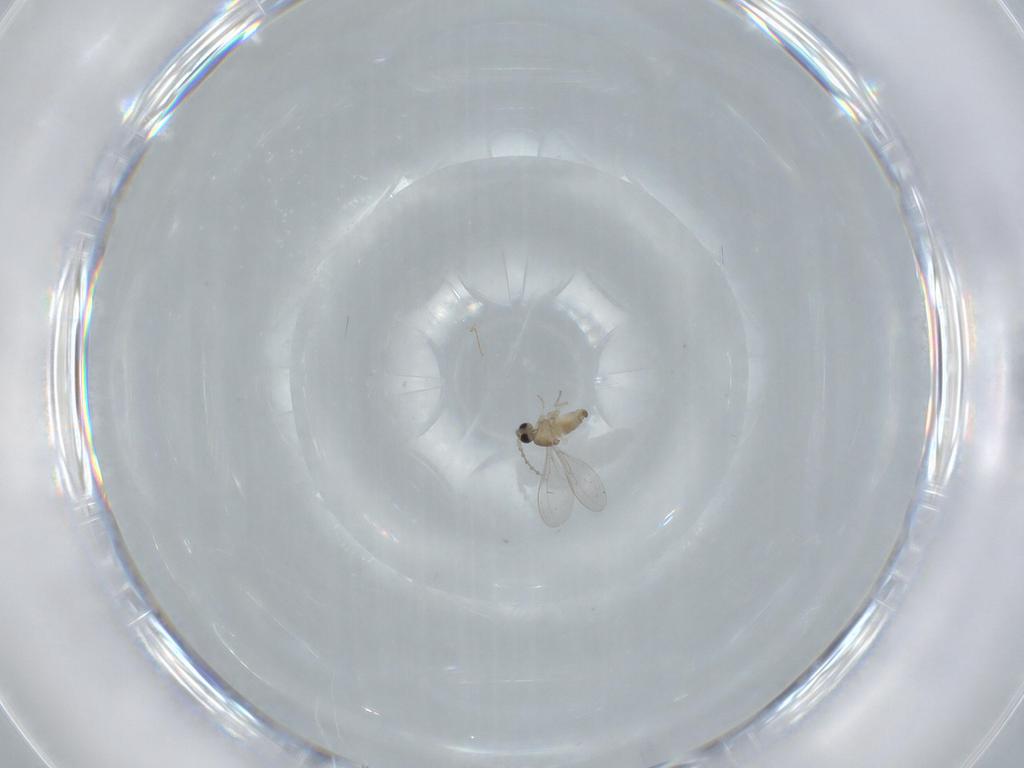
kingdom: Animalia
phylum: Arthropoda
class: Insecta
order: Diptera
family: Cecidomyiidae
